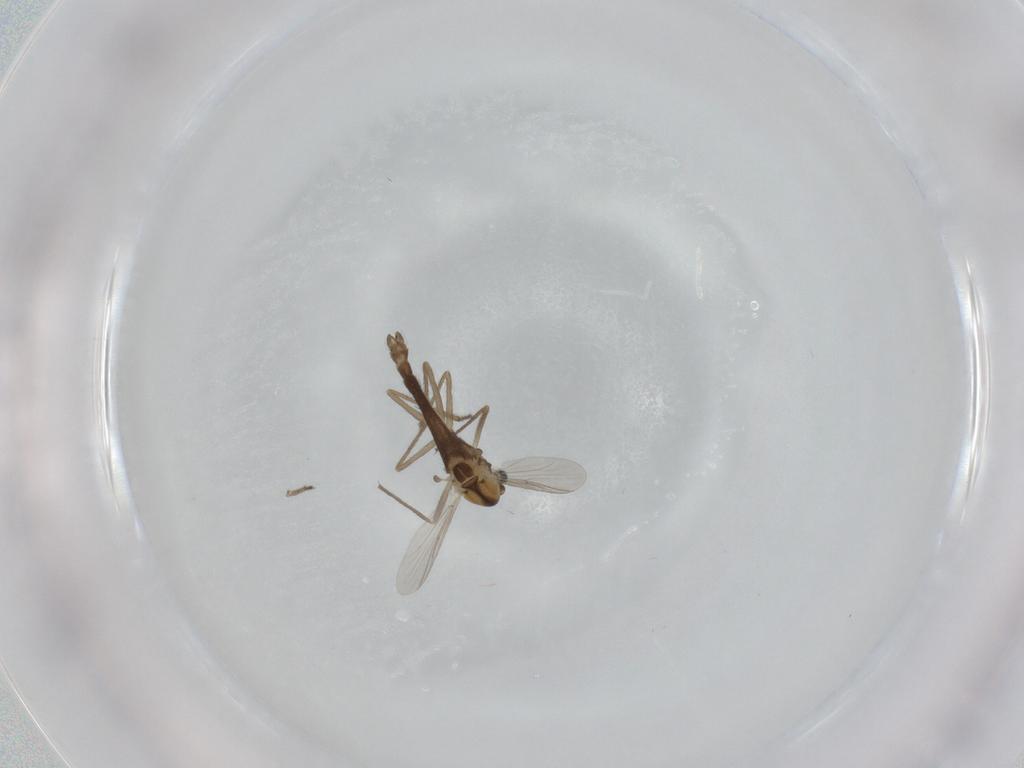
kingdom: Animalia
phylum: Arthropoda
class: Insecta
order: Diptera
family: Chironomidae
